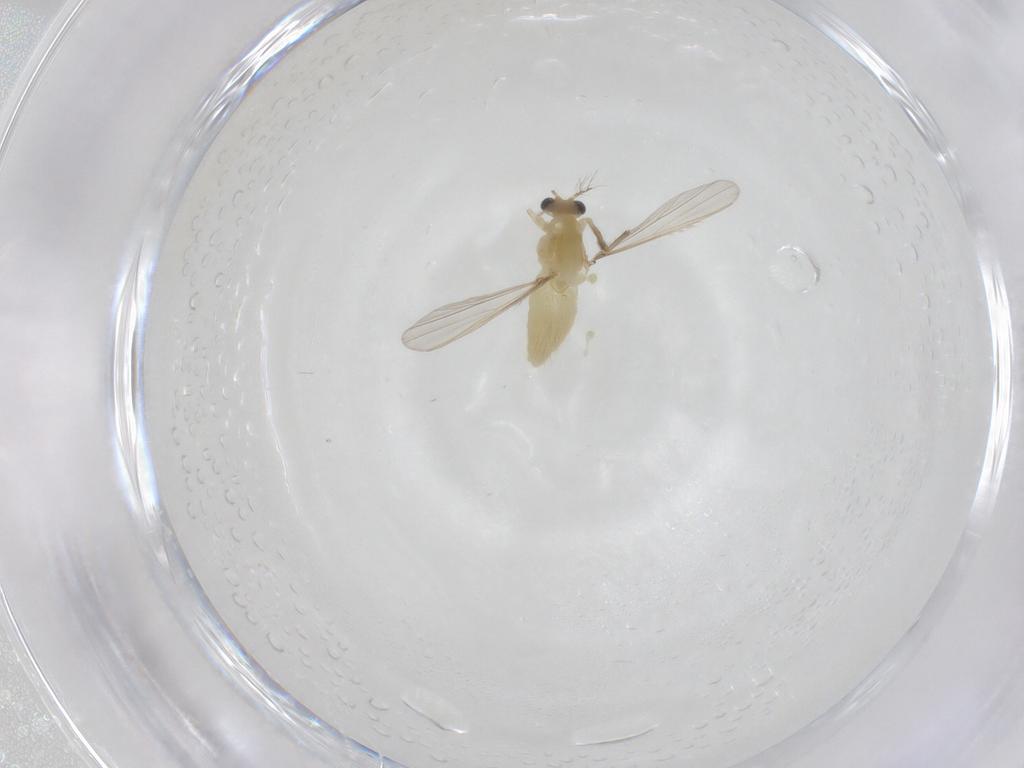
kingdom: Animalia
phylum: Arthropoda
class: Insecta
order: Diptera
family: Chironomidae
